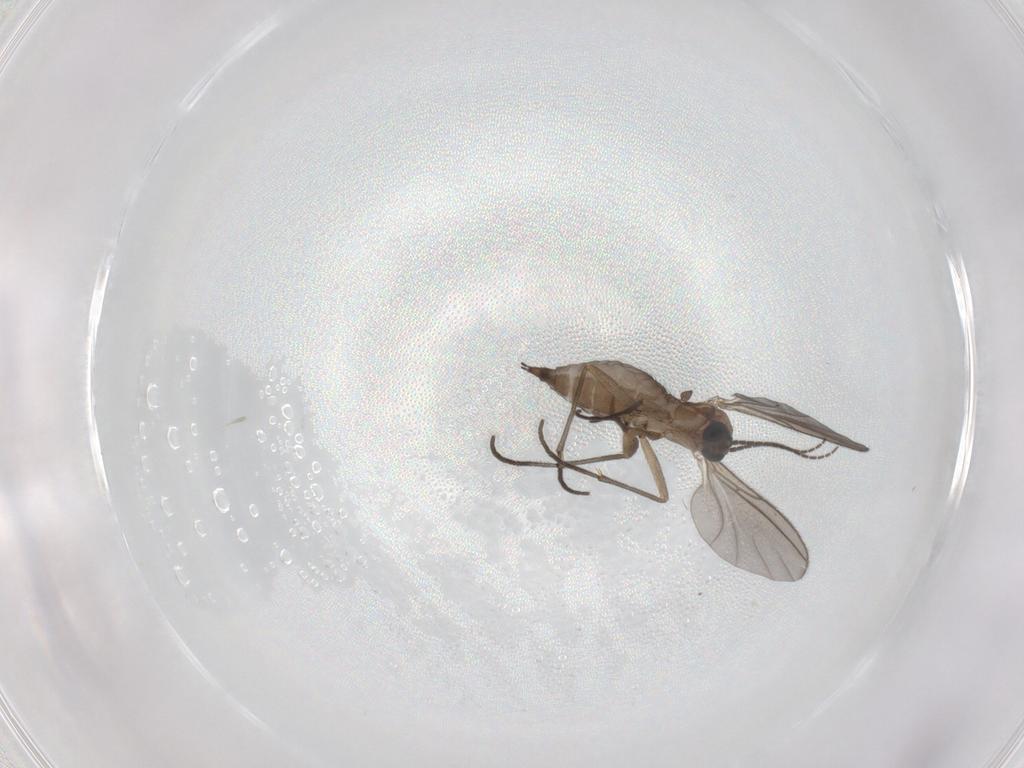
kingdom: Animalia
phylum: Arthropoda
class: Insecta
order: Diptera
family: Sciaridae
